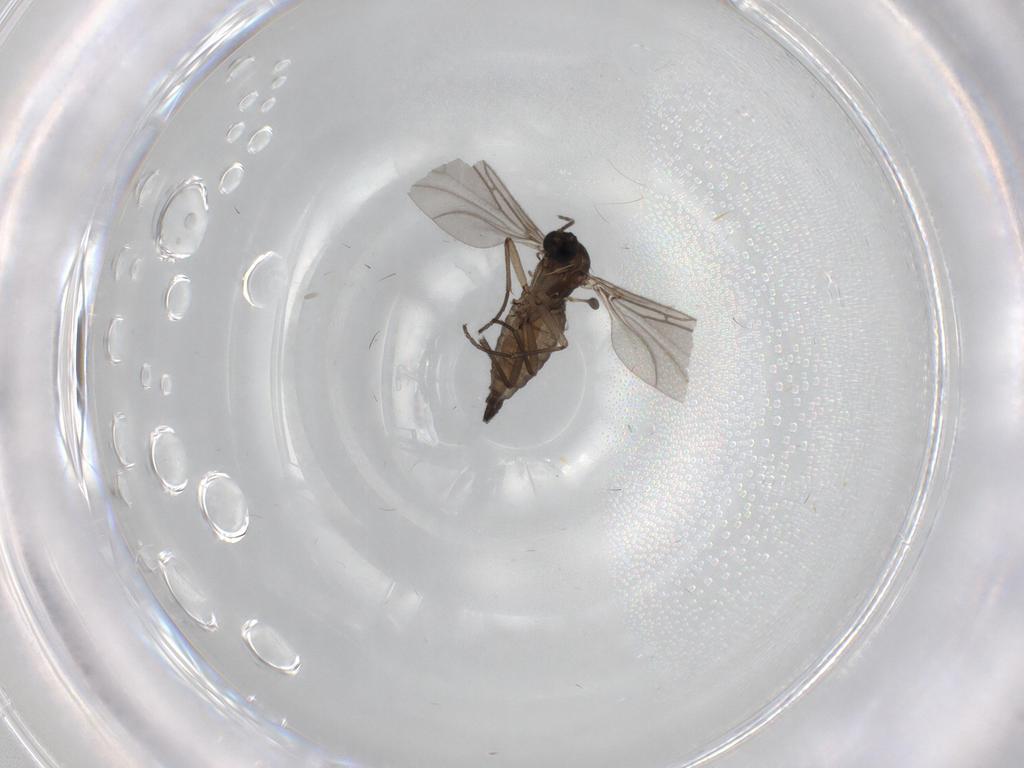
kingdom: Animalia
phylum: Arthropoda
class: Insecta
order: Diptera
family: Sciaridae
